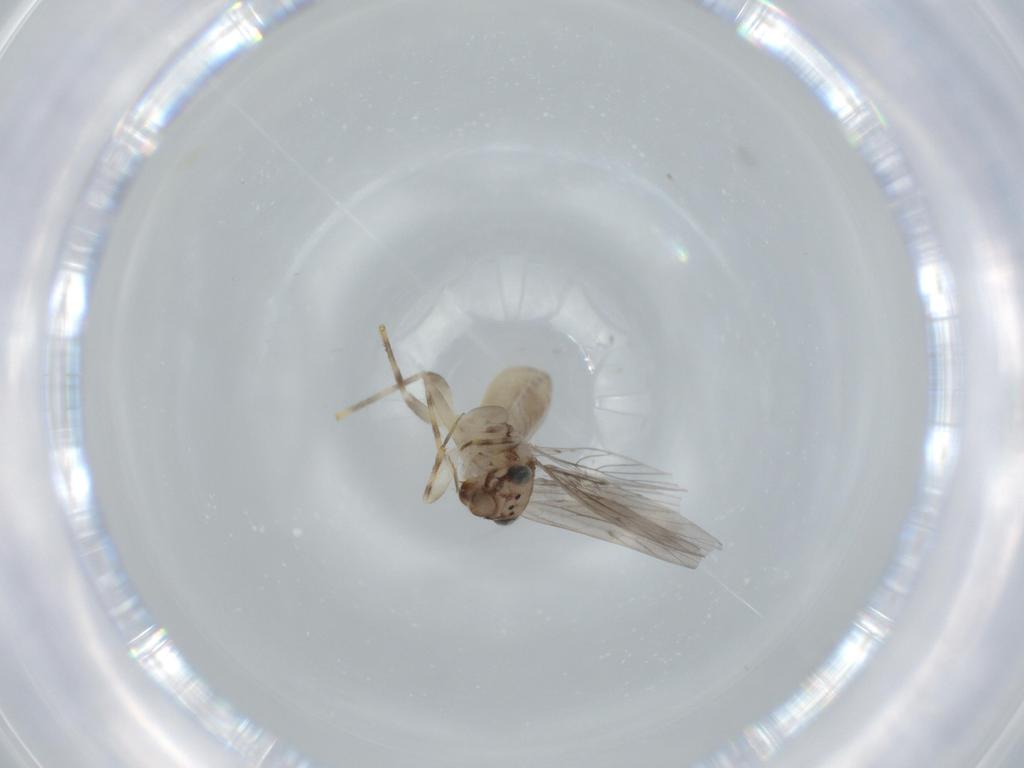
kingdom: Animalia
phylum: Arthropoda
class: Insecta
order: Psocodea
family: Lepidopsocidae
